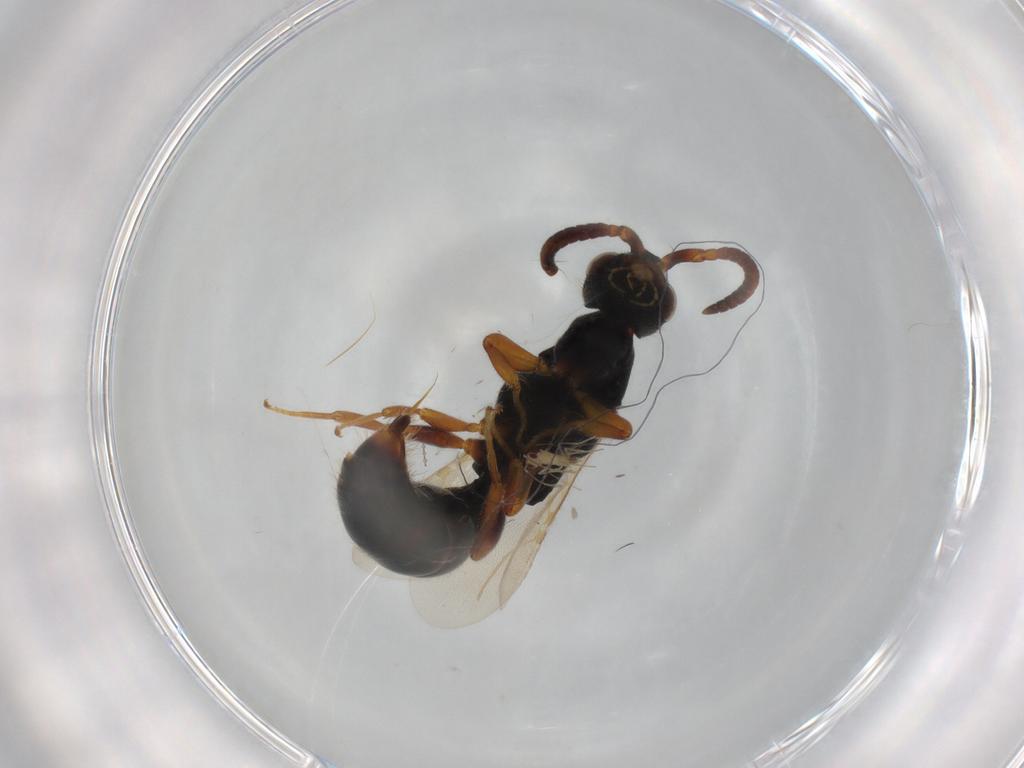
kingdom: Animalia
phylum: Arthropoda
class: Insecta
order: Hymenoptera
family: Bethylidae
